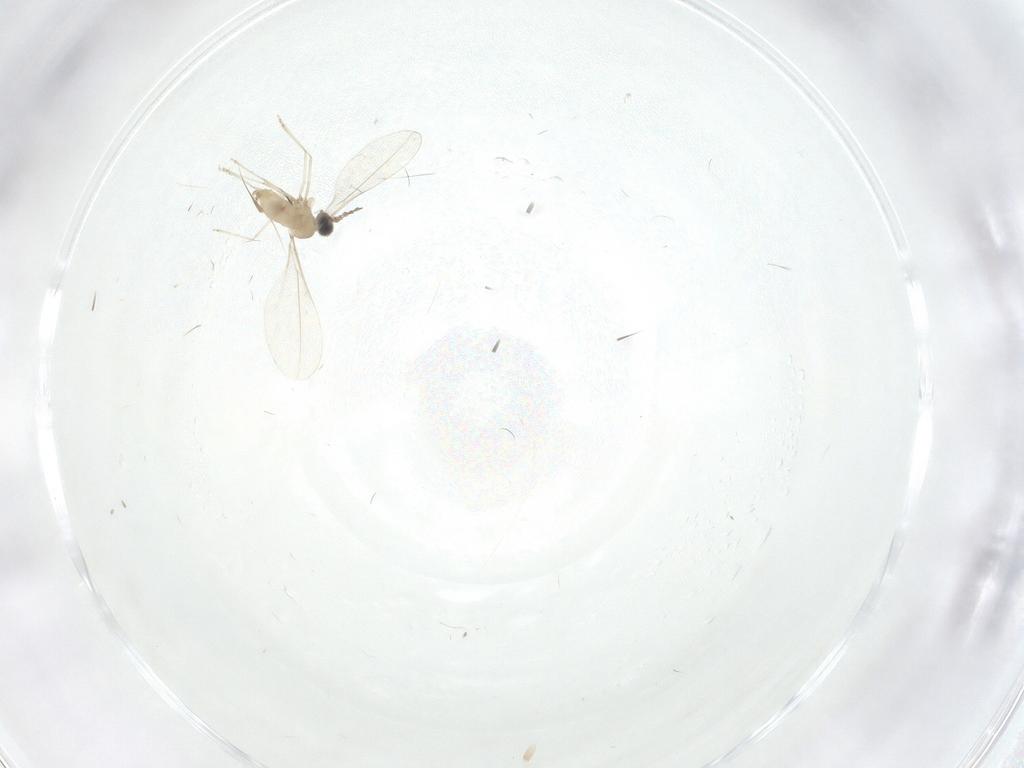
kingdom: Animalia
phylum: Arthropoda
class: Insecta
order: Diptera
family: Cecidomyiidae
